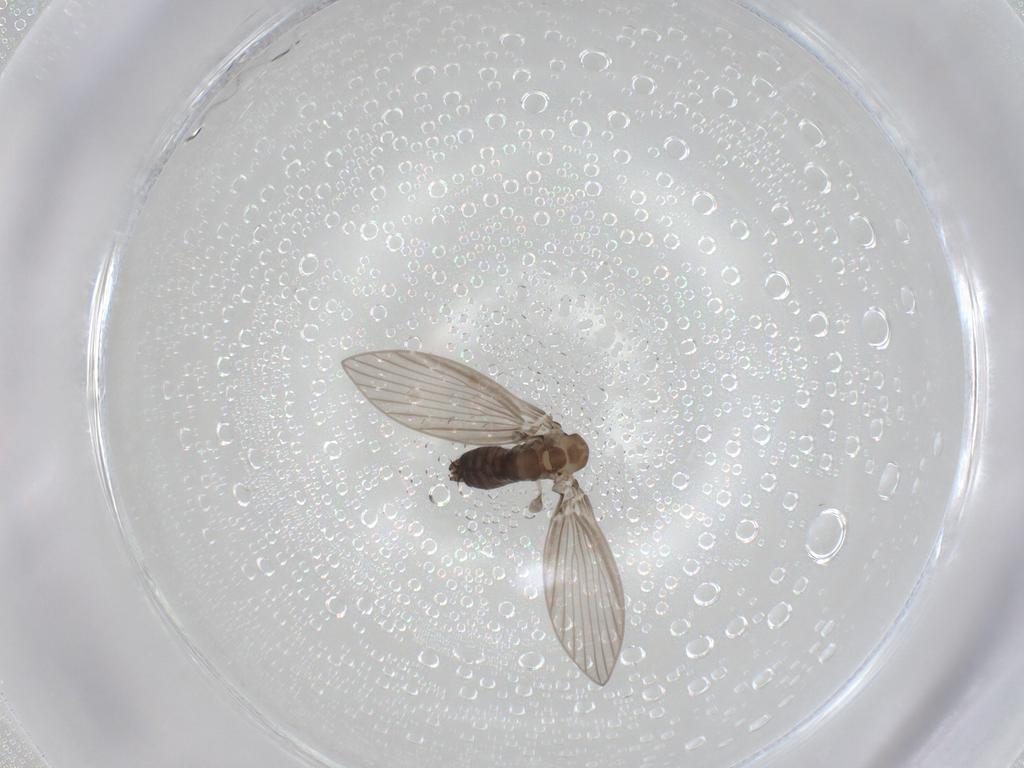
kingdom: Animalia
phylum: Arthropoda
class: Insecta
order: Diptera
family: Psychodidae
